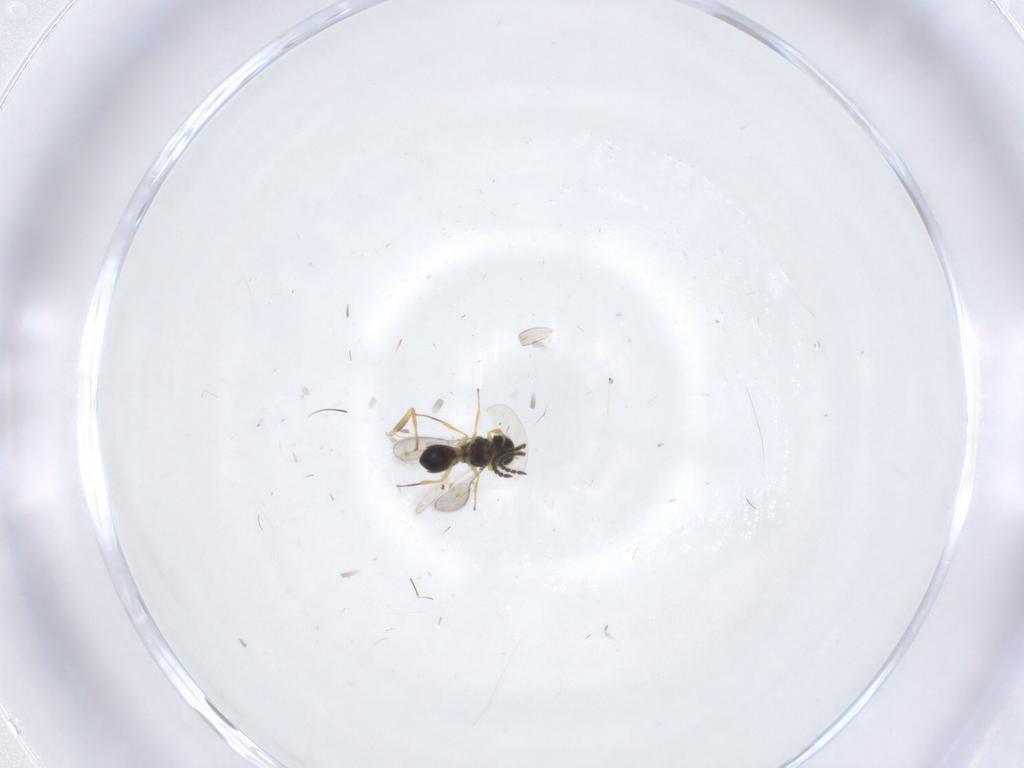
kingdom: Animalia
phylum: Arthropoda
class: Insecta
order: Hymenoptera
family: Scelionidae
